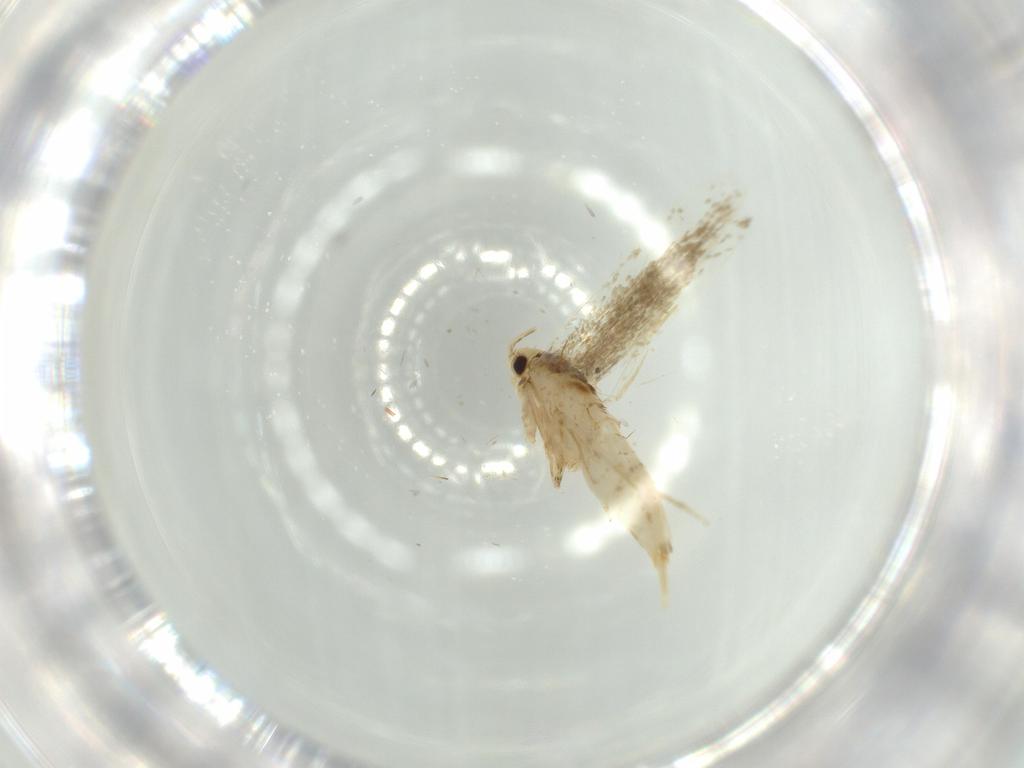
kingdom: Animalia
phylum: Arthropoda
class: Insecta
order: Lepidoptera
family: Tineidae
